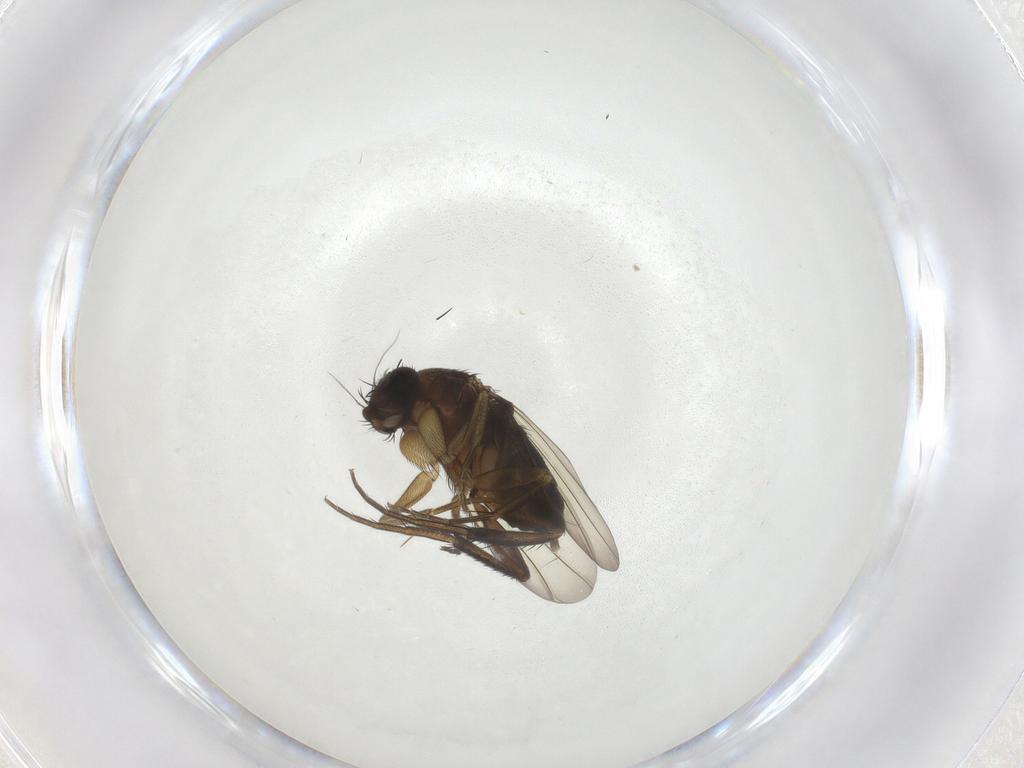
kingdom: Animalia
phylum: Arthropoda
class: Insecta
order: Diptera
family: Phoridae
